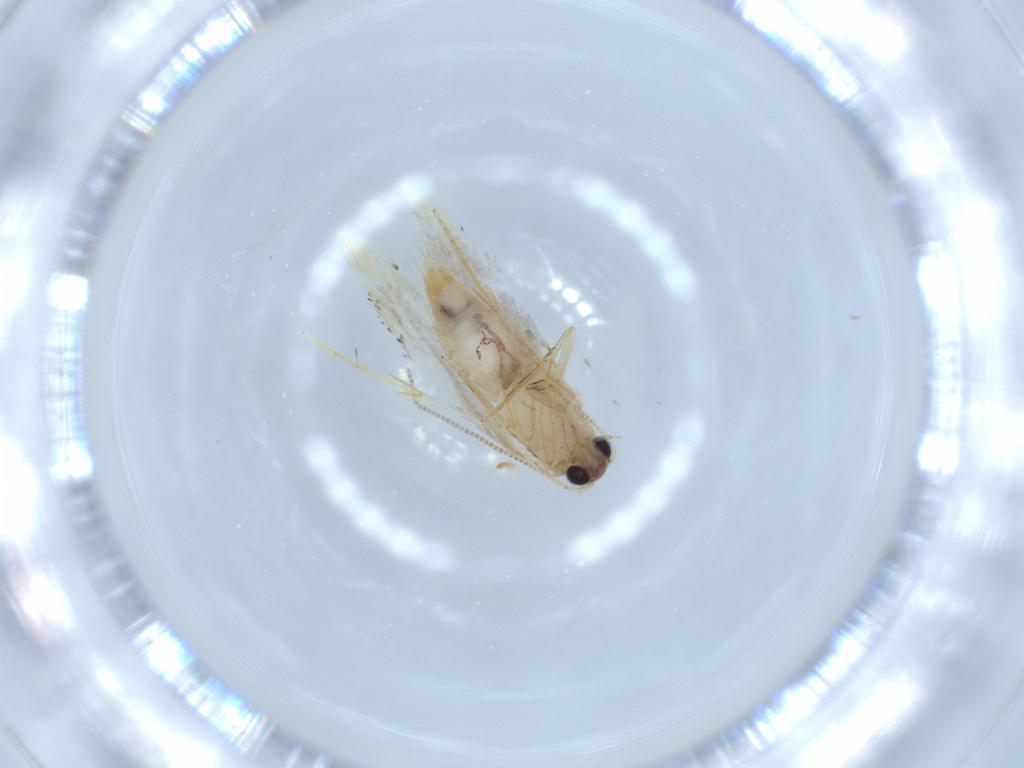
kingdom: Animalia
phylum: Arthropoda
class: Insecta
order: Lepidoptera
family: Tineidae
